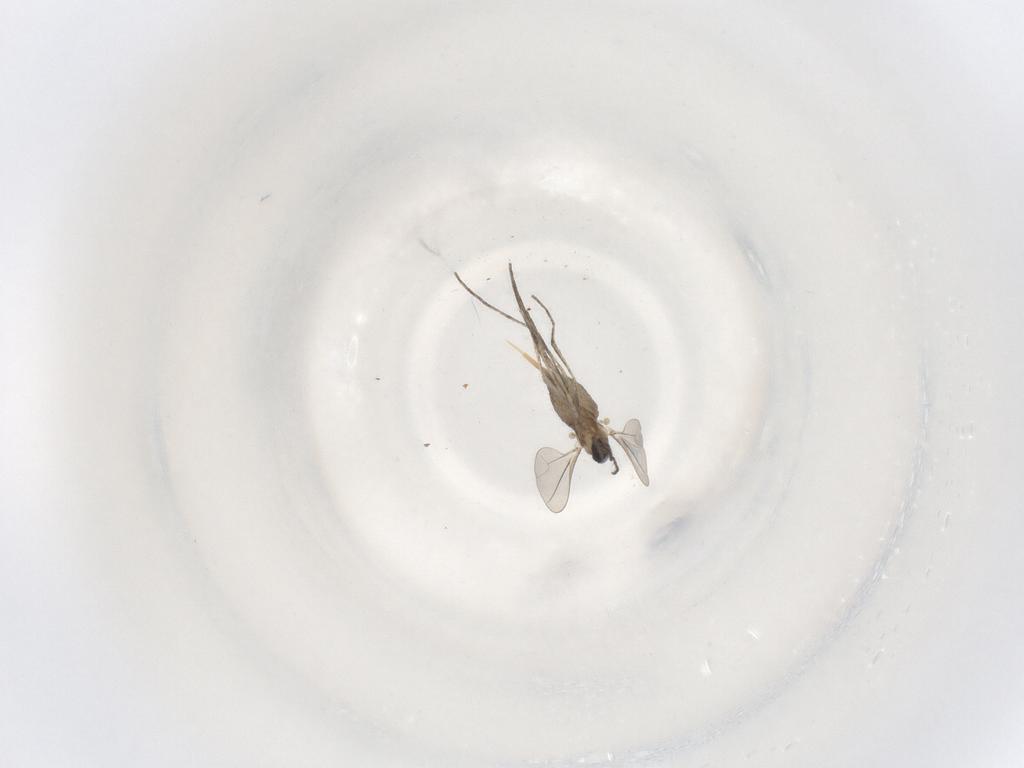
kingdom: Animalia
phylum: Arthropoda
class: Insecta
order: Diptera
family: Cecidomyiidae
